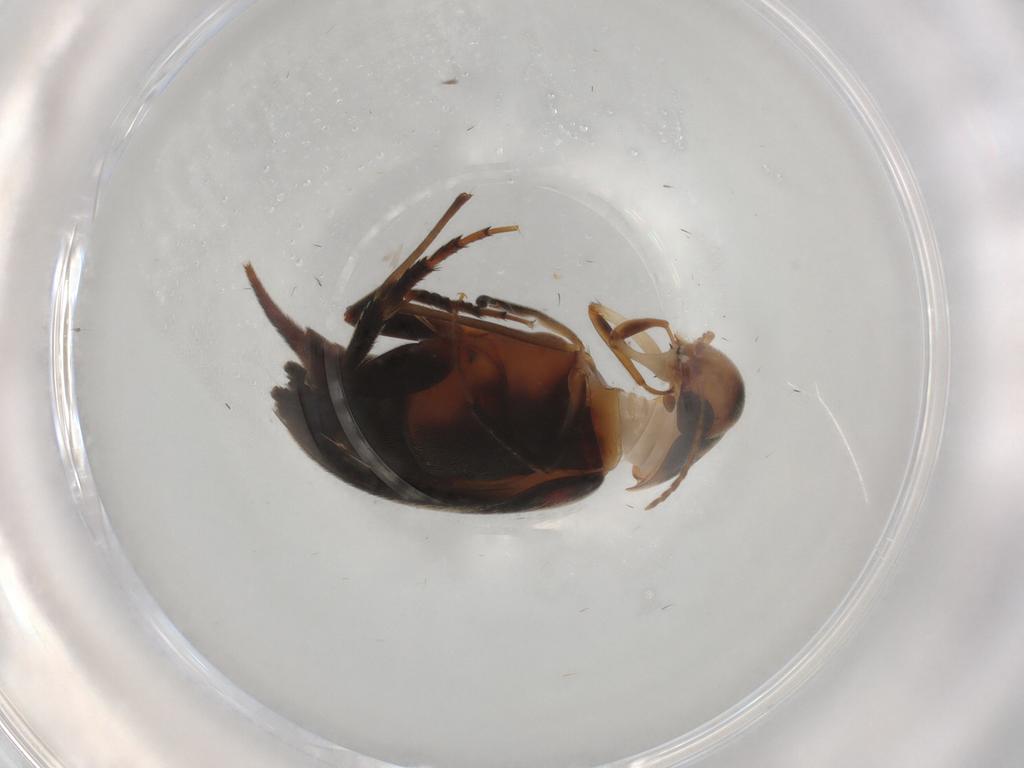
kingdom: Animalia
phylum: Arthropoda
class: Insecta
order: Coleoptera
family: Mordellidae
